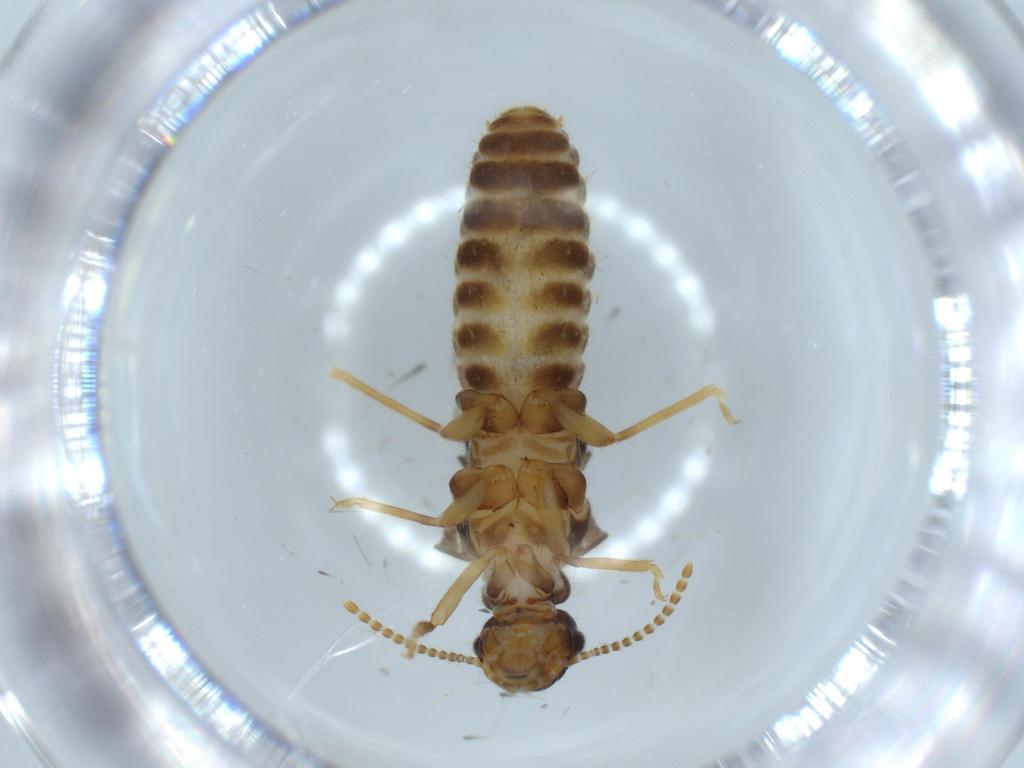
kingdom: Animalia
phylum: Arthropoda
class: Insecta
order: Blattodea
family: Termitidae
